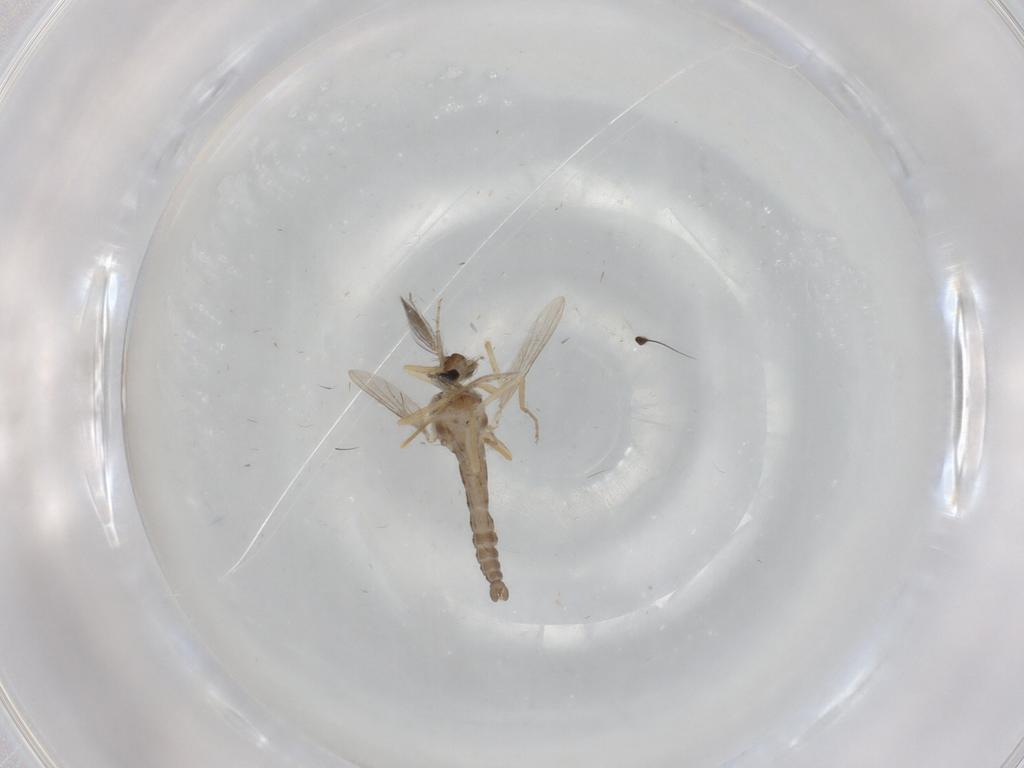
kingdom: Animalia
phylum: Arthropoda
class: Insecta
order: Diptera
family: Ceratopogonidae
